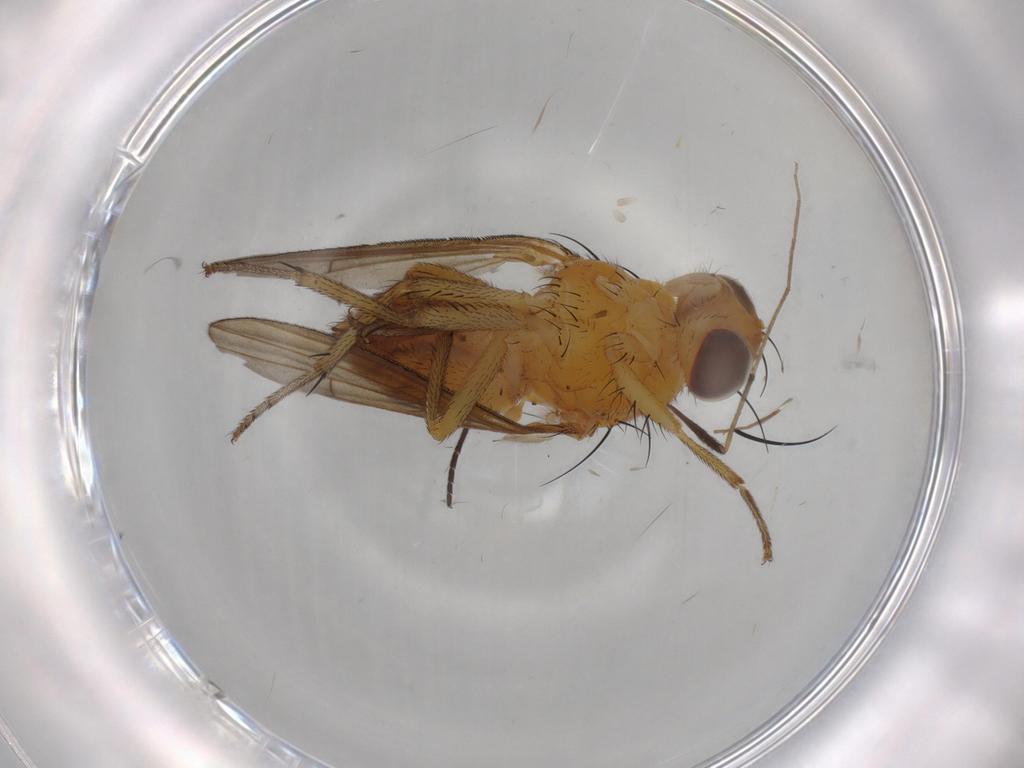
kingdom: Animalia
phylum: Arthropoda
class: Insecta
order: Diptera
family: Lauxaniidae
